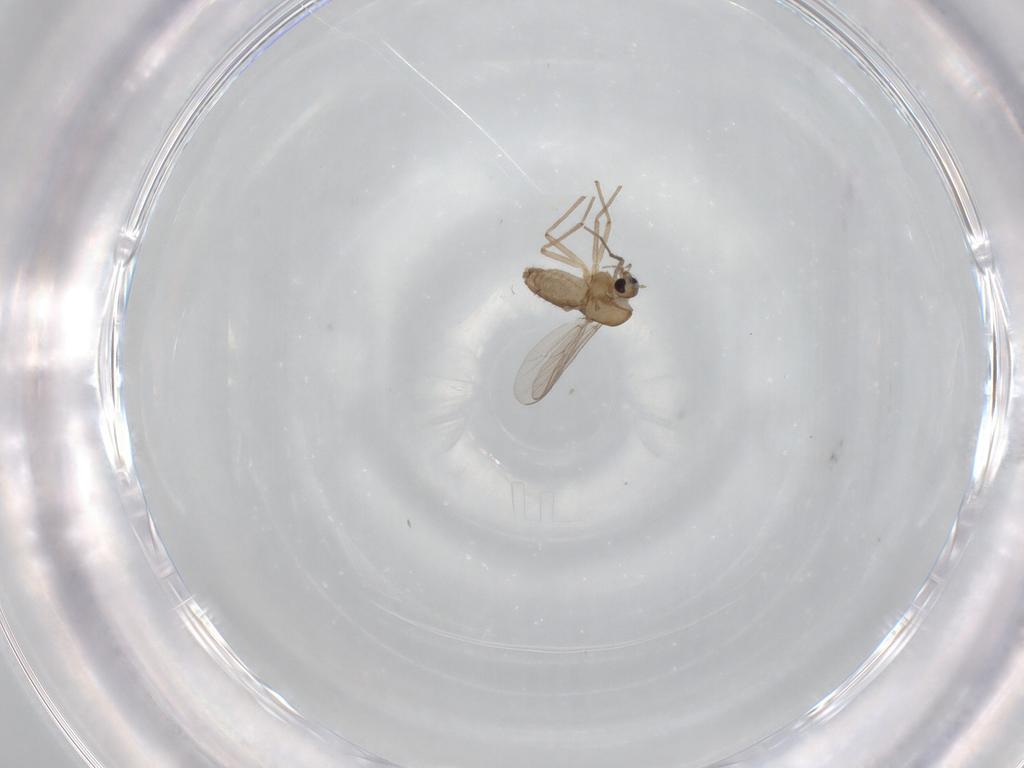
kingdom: Animalia
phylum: Arthropoda
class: Insecta
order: Diptera
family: Chironomidae
